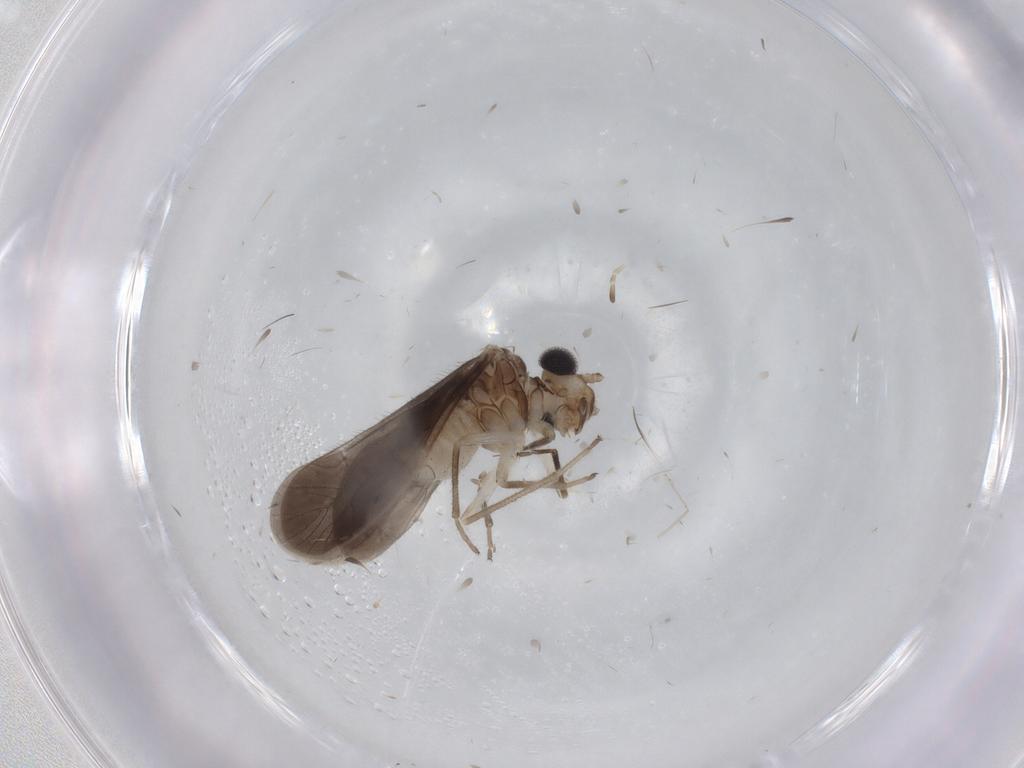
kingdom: Animalia
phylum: Arthropoda
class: Insecta
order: Psocodea
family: Caeciliusidae
